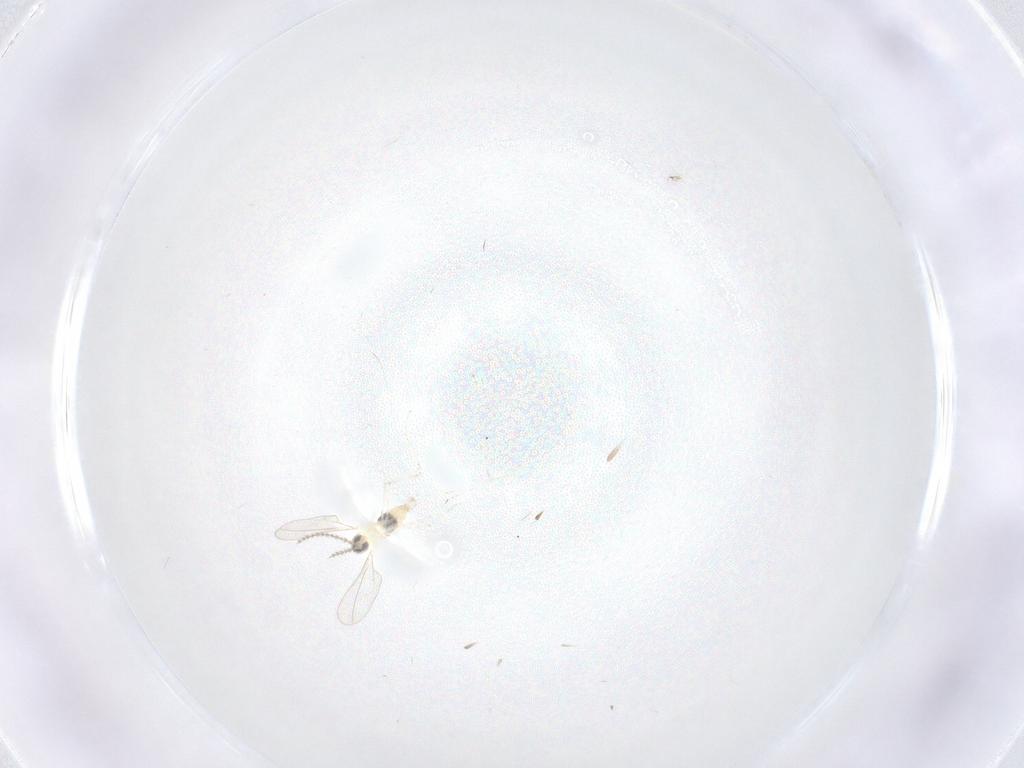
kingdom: Animalia
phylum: Arthropoda
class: Insecta
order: Diptera
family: Cecidomyiidae
